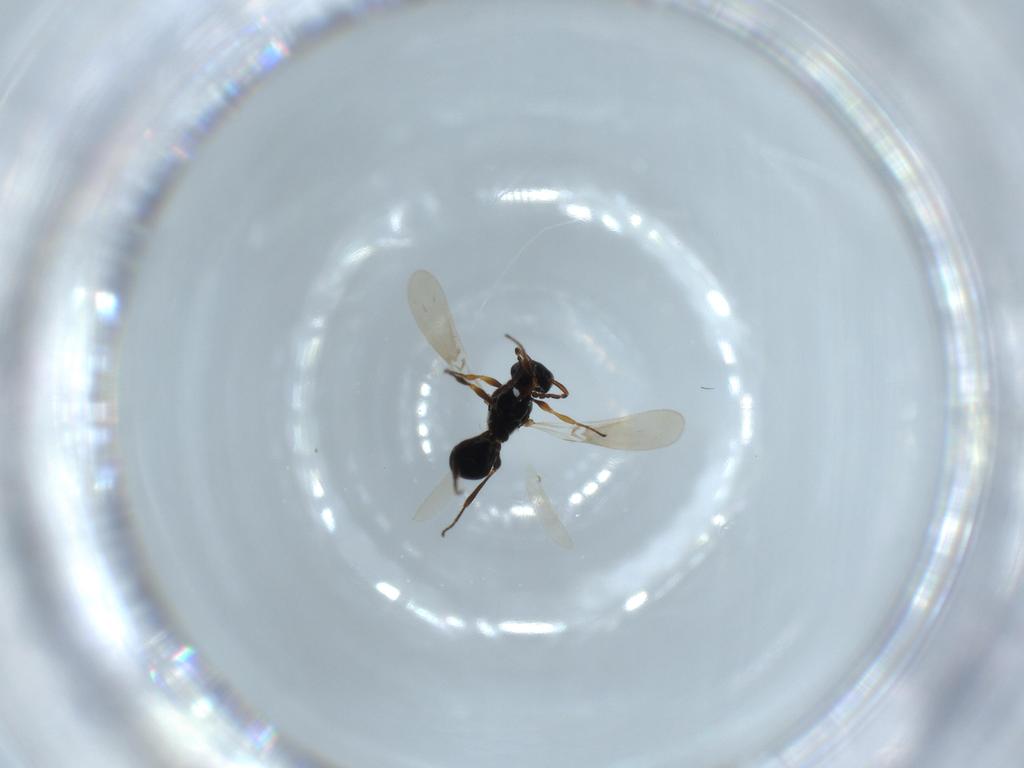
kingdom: Animalia
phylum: Arthropoda
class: Insecta
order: Hymenoptera
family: Platygastridae
